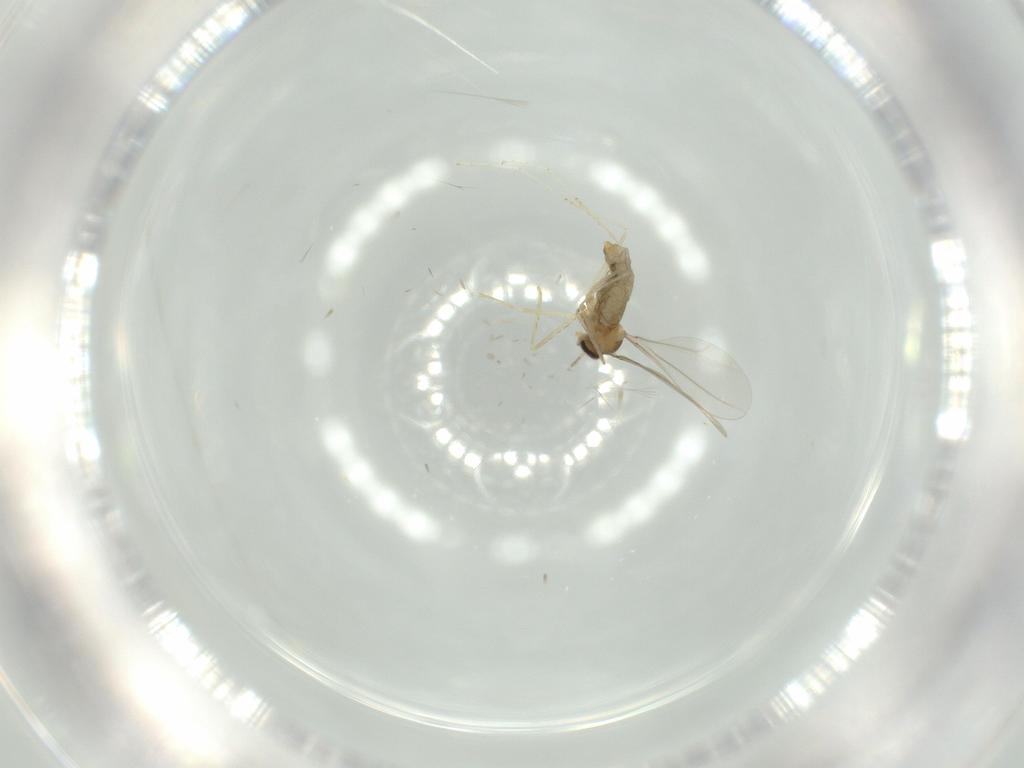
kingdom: Animalia
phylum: Arthropoda
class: Insecta
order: Diptera
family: Cecidomyiidae
